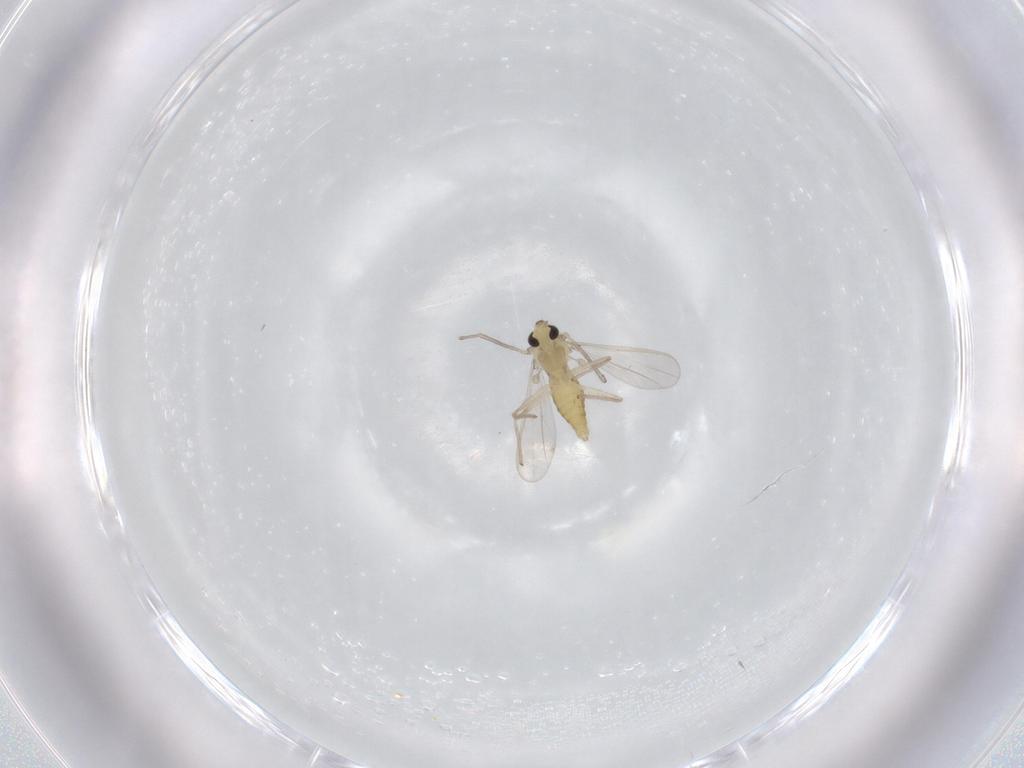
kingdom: Animalia
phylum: Arthropoda
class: Insecta
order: Diptera
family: Chironomidae
